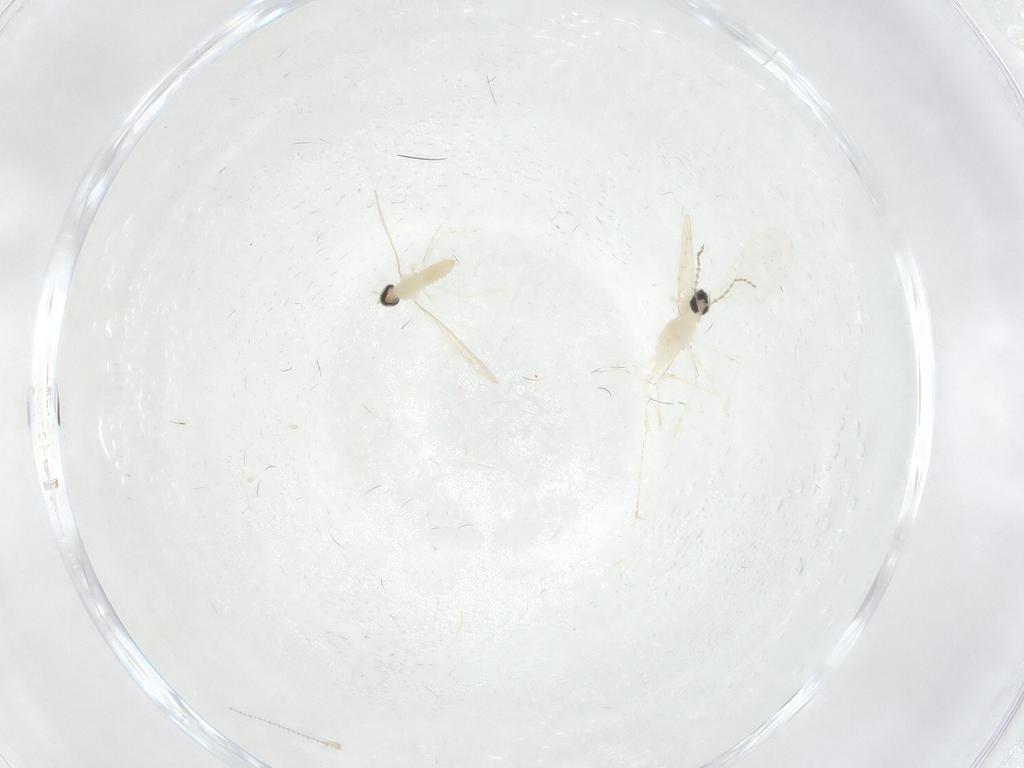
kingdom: Animalia
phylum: Arthropoda
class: Insecta
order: Diptera
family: Cecidomyiidae
